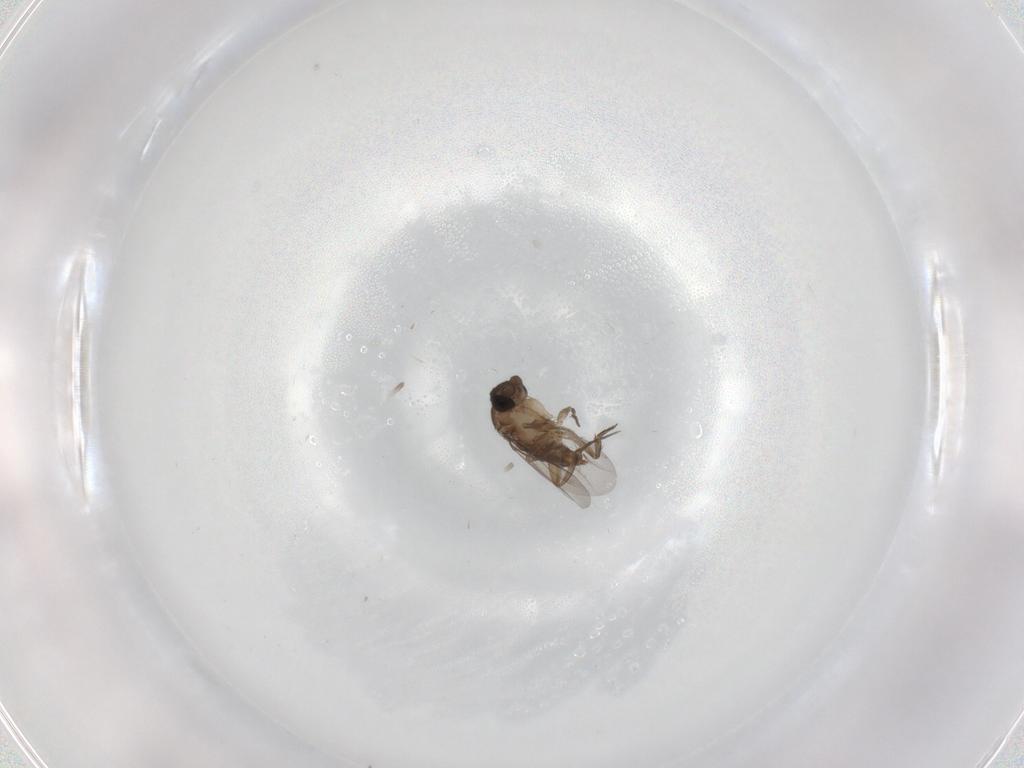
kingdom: Animalia
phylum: Arthropoda
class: Insecta
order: Diptera
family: Phoridae
